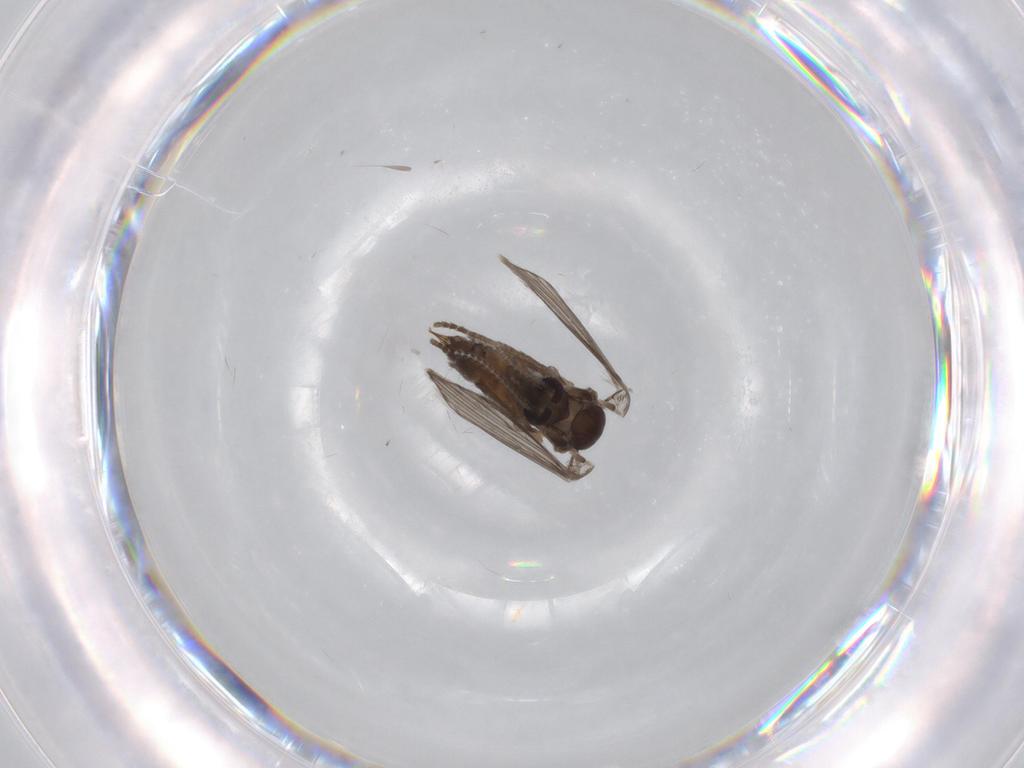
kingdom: Animalia
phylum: Arthropoda
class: Insecta
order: Diptera
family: Psychodidae
